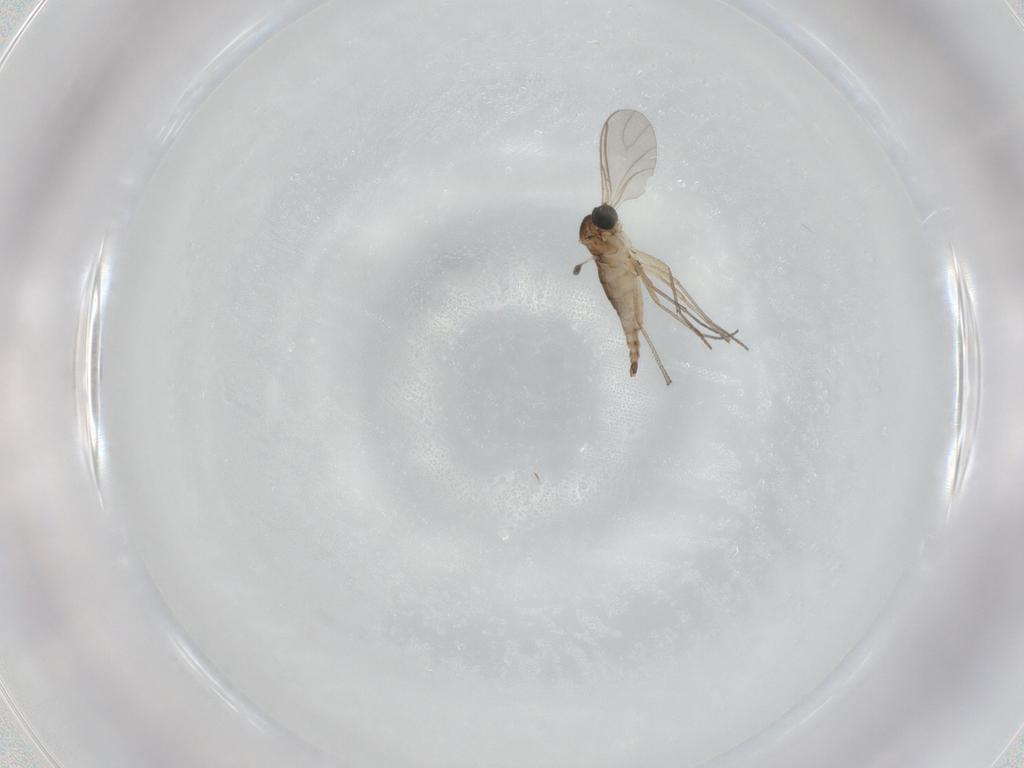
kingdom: Animalia
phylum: Arthropoda
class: Insecta
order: Diptera
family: Sciaridae
